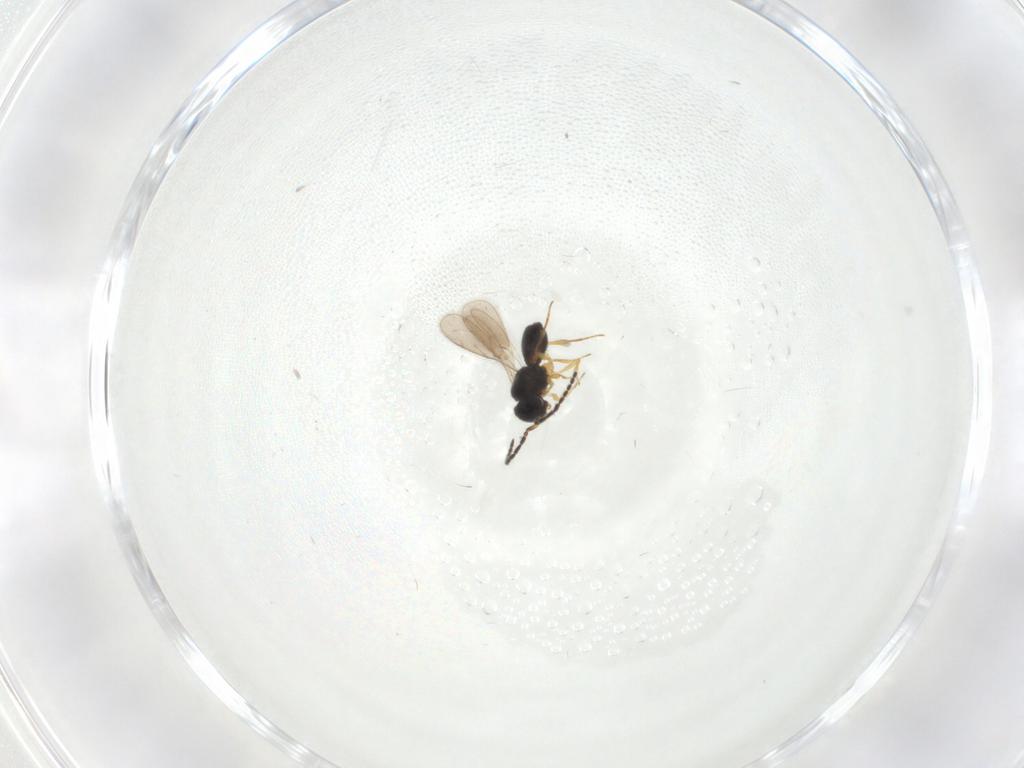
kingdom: Animalia
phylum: Arthropoda
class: Insecta
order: Hymenoptera
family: Scelionidae
